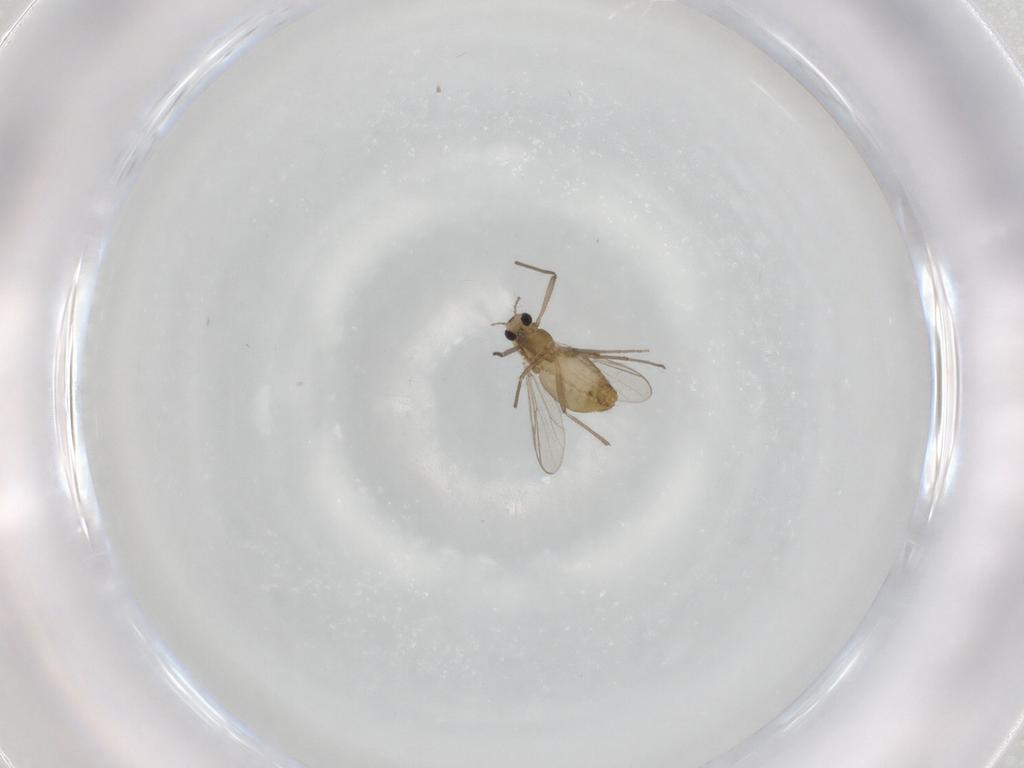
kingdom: Animalia
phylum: Arthropoda
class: Insecta
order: Diptera
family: Chironomidae
